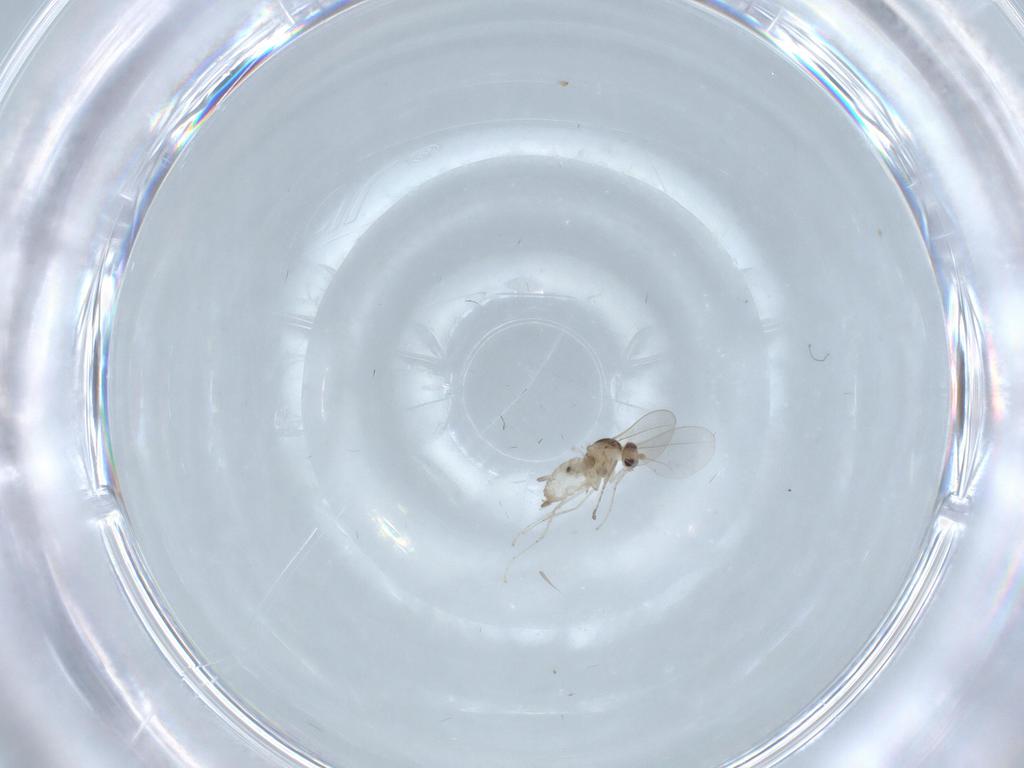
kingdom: Animalia
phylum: Arthropoda
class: Insecta
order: Diptera
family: Cecidomyiidae
